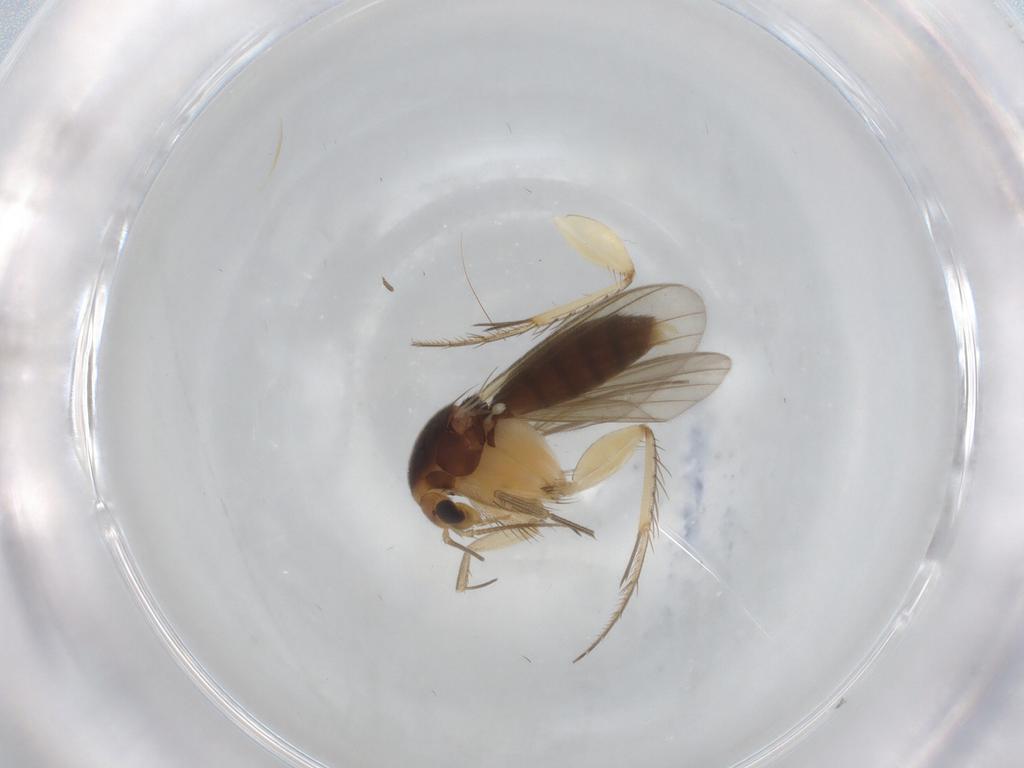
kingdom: Animalia
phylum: Arthropoda
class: Insecta
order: Diptera
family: Mycetophilidae
